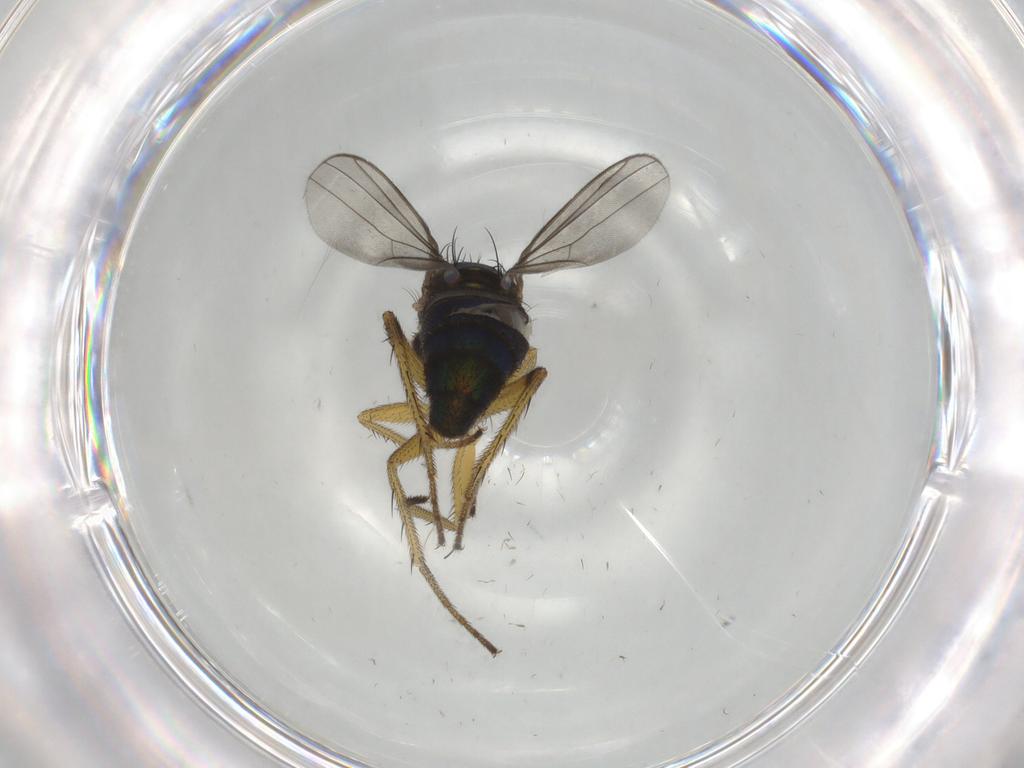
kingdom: Animalia
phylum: Arthropoda
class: Insecta
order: Diptera
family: Dolichopodidae
